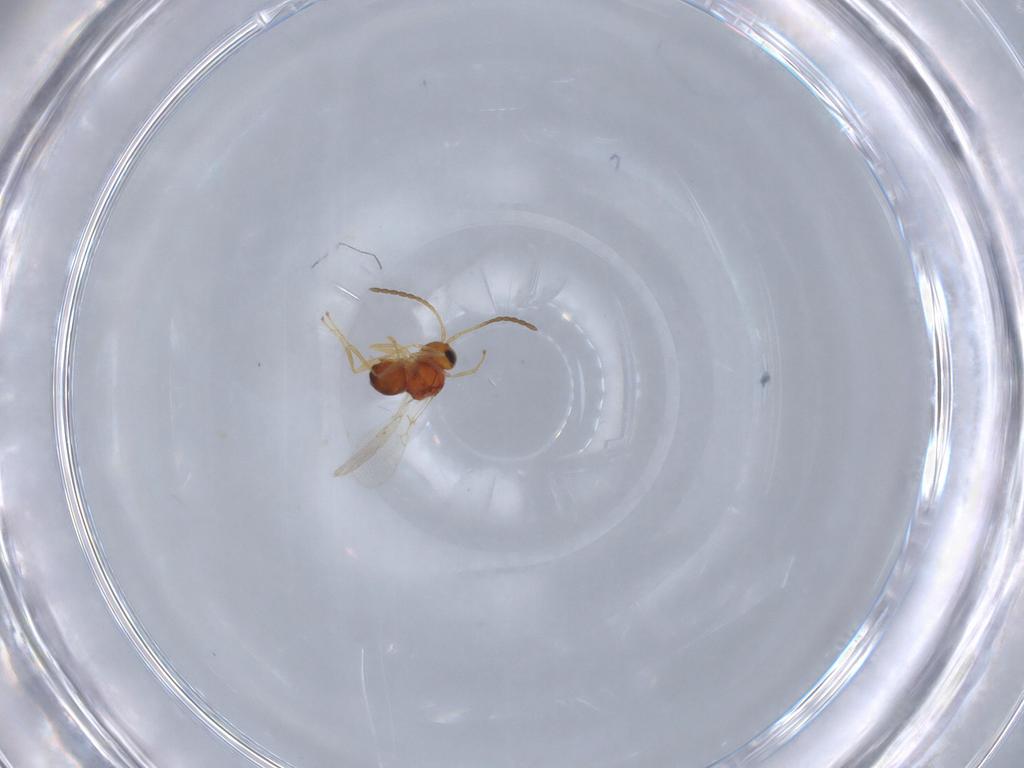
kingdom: Animalia
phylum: Arthropoda
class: Insecta
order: Hymenoptera
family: Figitidae
